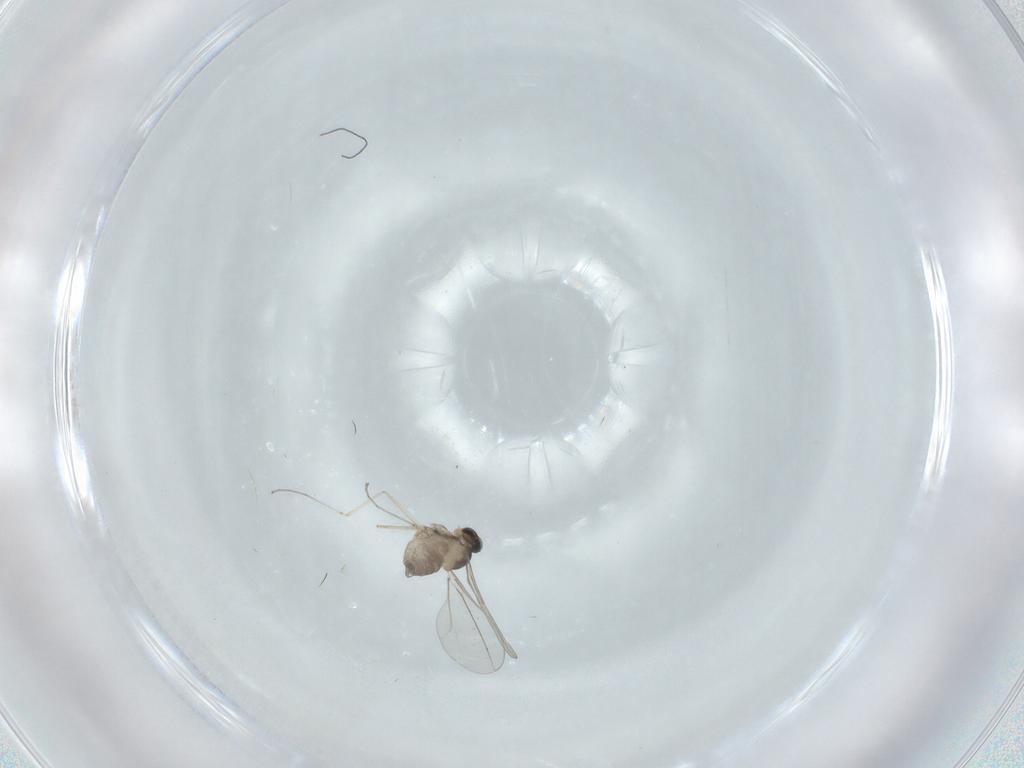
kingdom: Animalia
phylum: Arthropoda
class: Insecta
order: Diptera
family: Cecidomyiidae
